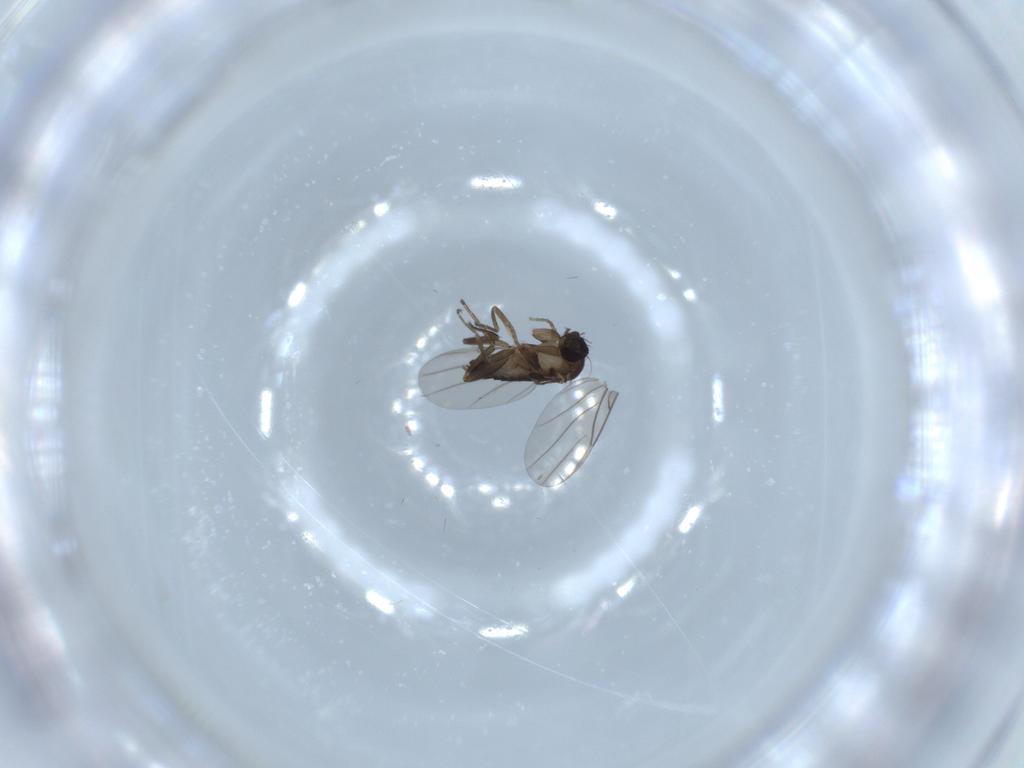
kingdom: Animalia
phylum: Arthropoda
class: Insecta
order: Diptera
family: Phoridae
